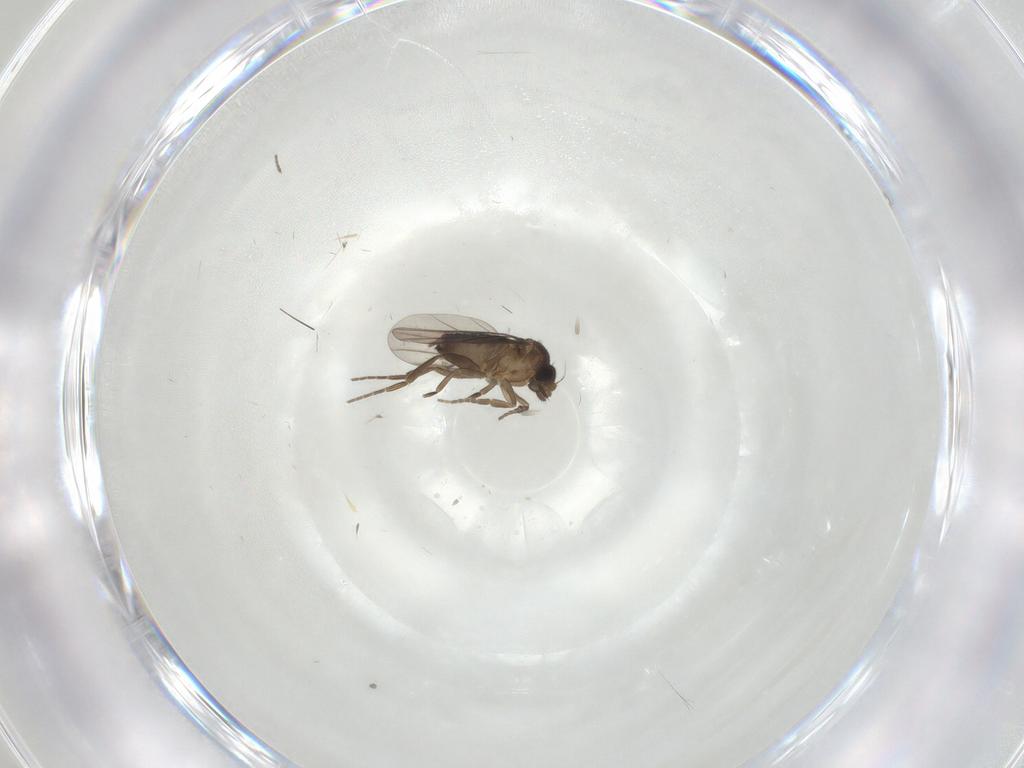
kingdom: Animalia
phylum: Arthropoda
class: Insecta
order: Diptera
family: Phoridae
